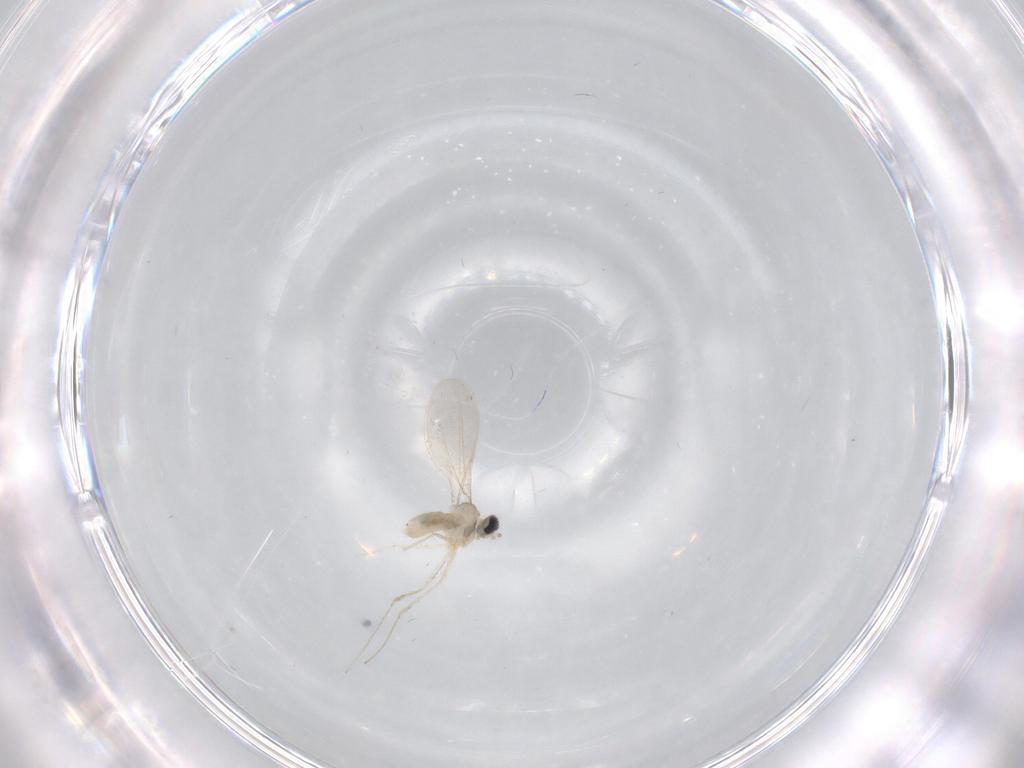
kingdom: Animalia
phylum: Arthropoda
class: Insecta
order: Diptera
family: Cecidomyiidae
